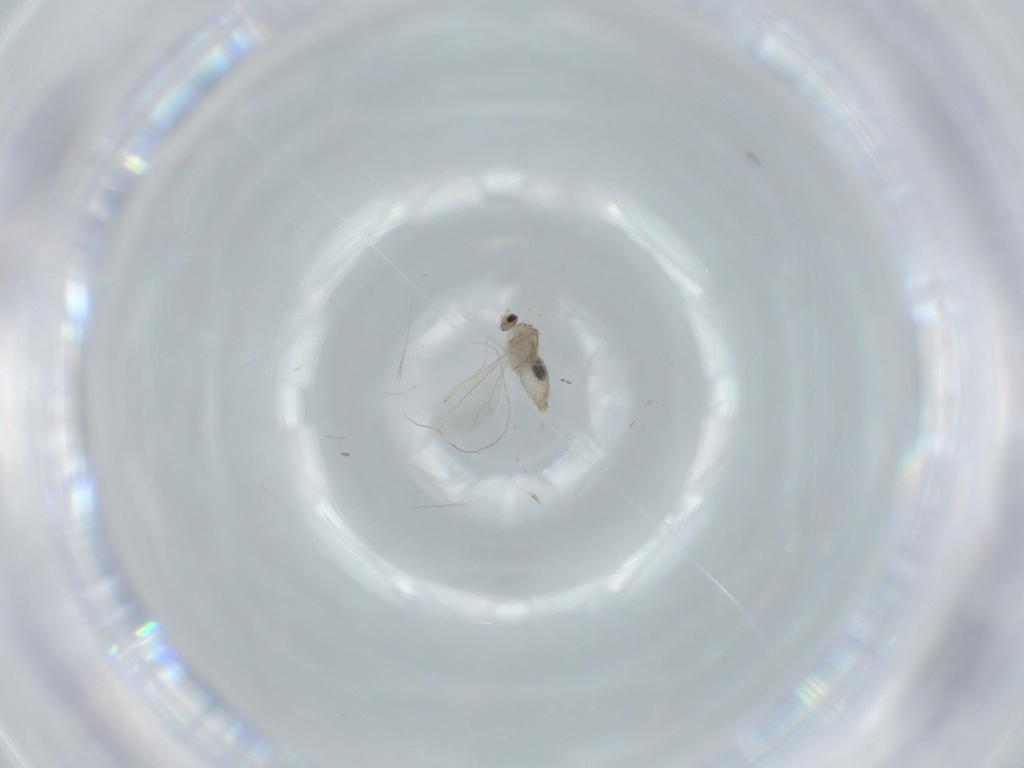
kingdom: Animalia
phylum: Arthropoda
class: Insecta
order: Diptera
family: Cecidomyiidae
